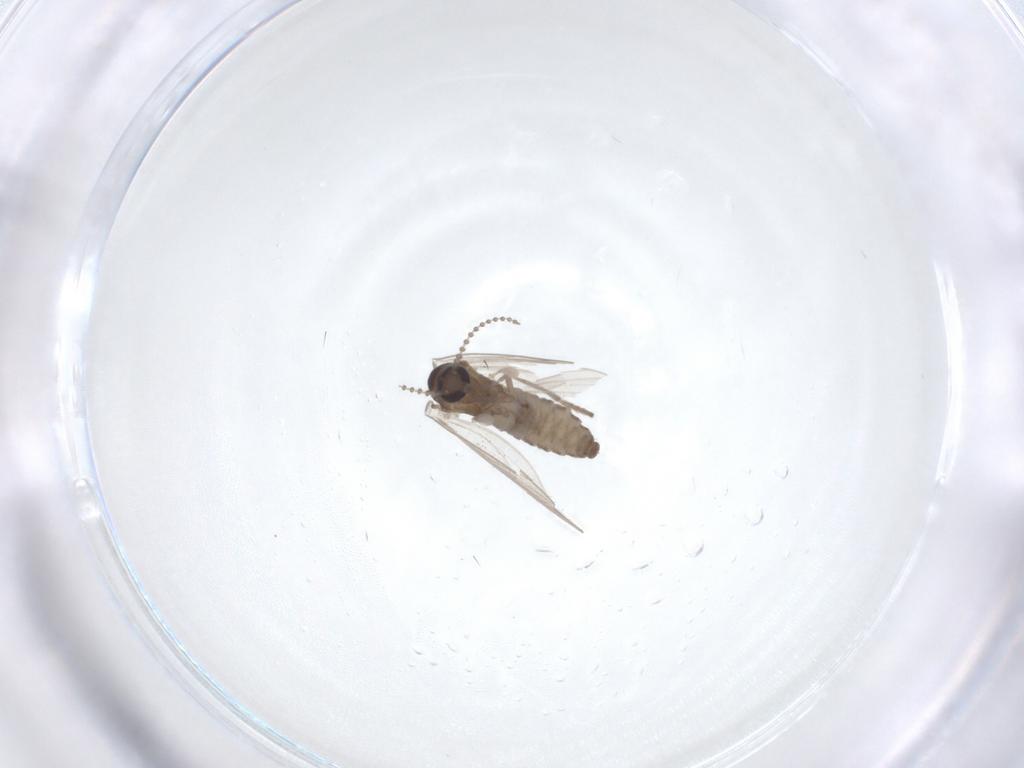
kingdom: Animalia
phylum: Arthropoda
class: Insecta
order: Diptera
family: Psychodidae
